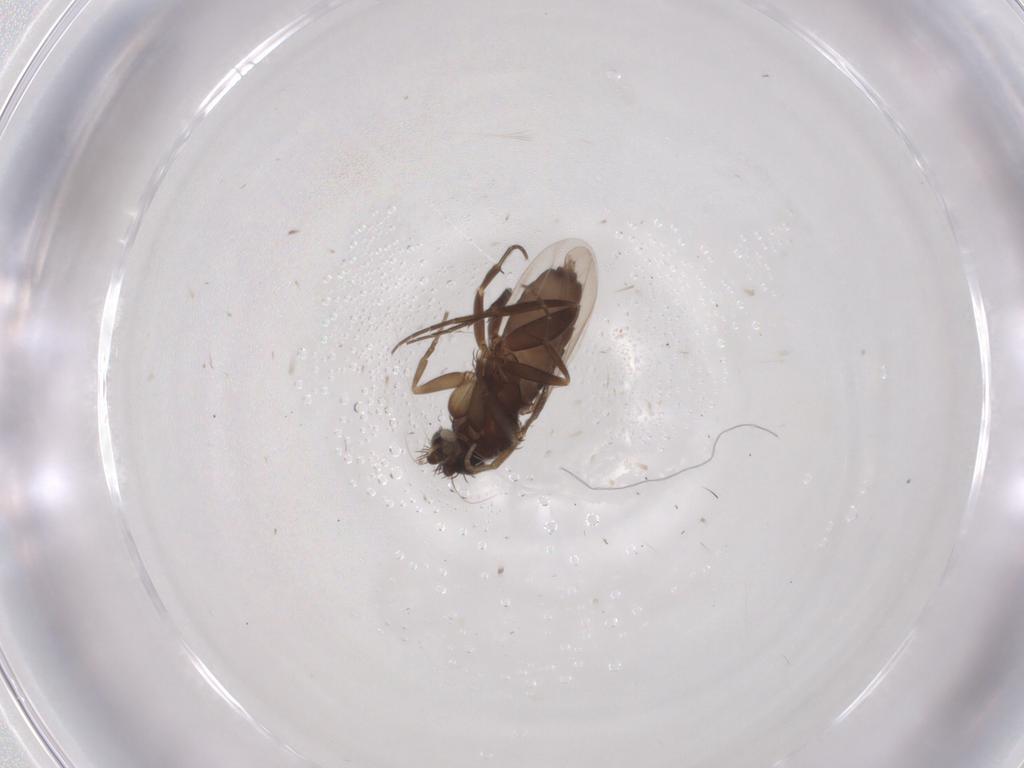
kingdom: Animalia
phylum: Arthropoda
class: Insecta
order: Diptera
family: Phoridae
